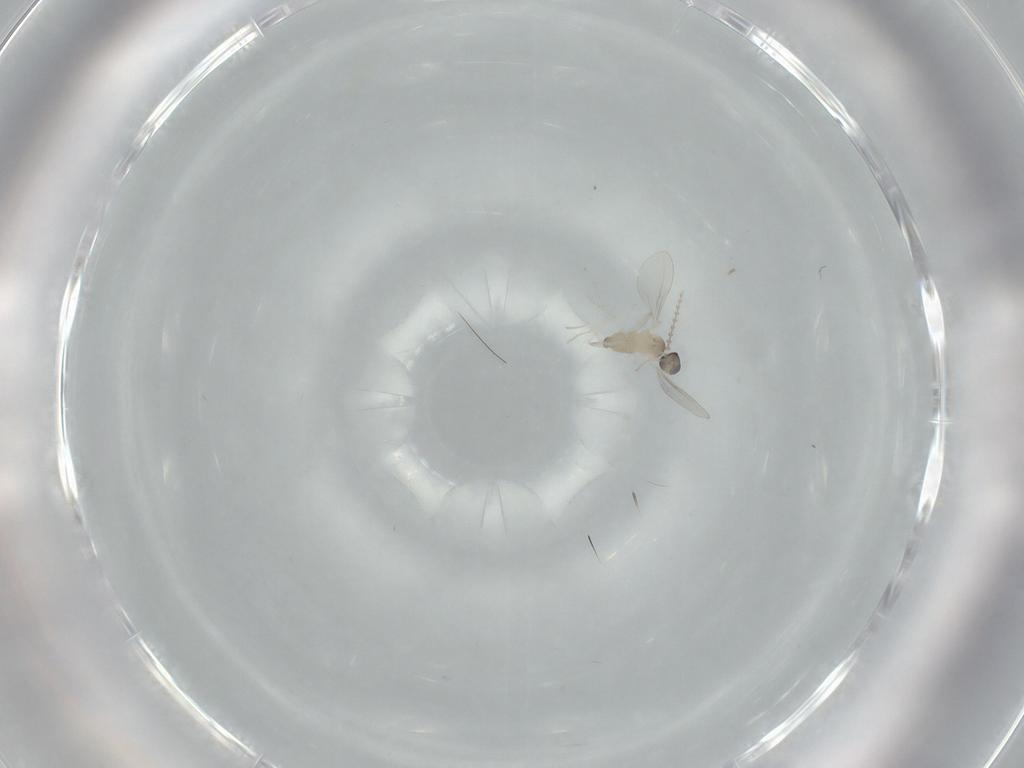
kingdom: Animalia
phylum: Arthropoda
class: Insecta
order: Diptera
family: Cecidomyiidae
